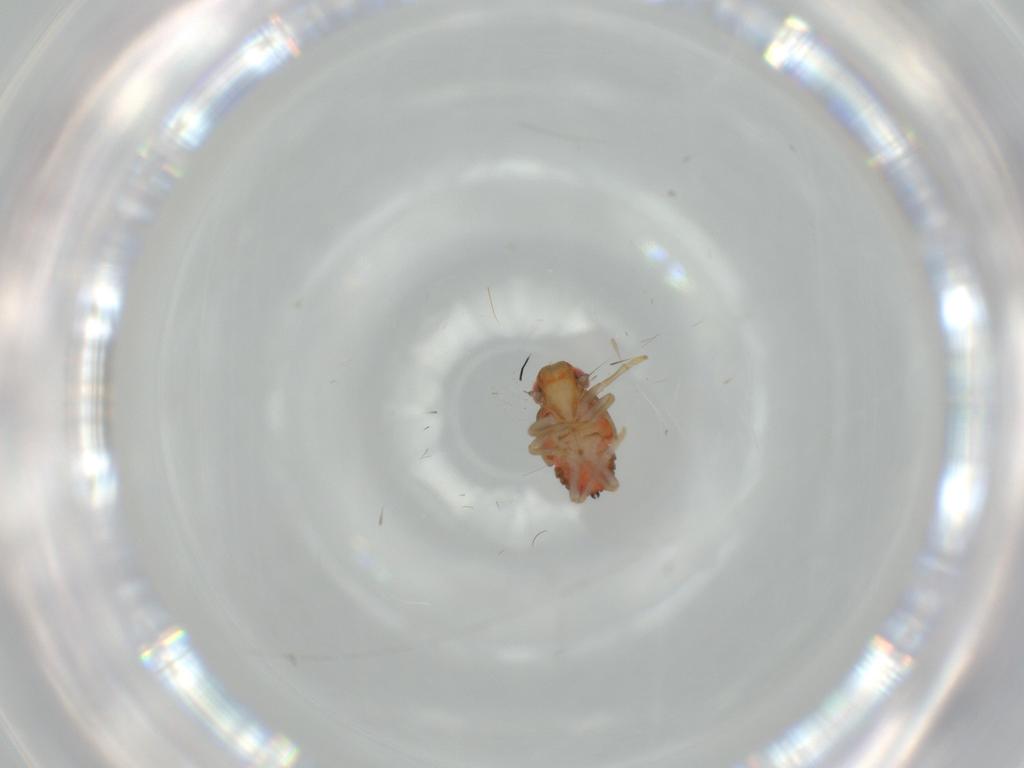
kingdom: Animalia
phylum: Arthropoda
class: Insecta
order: Hemiptera
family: Issidae
